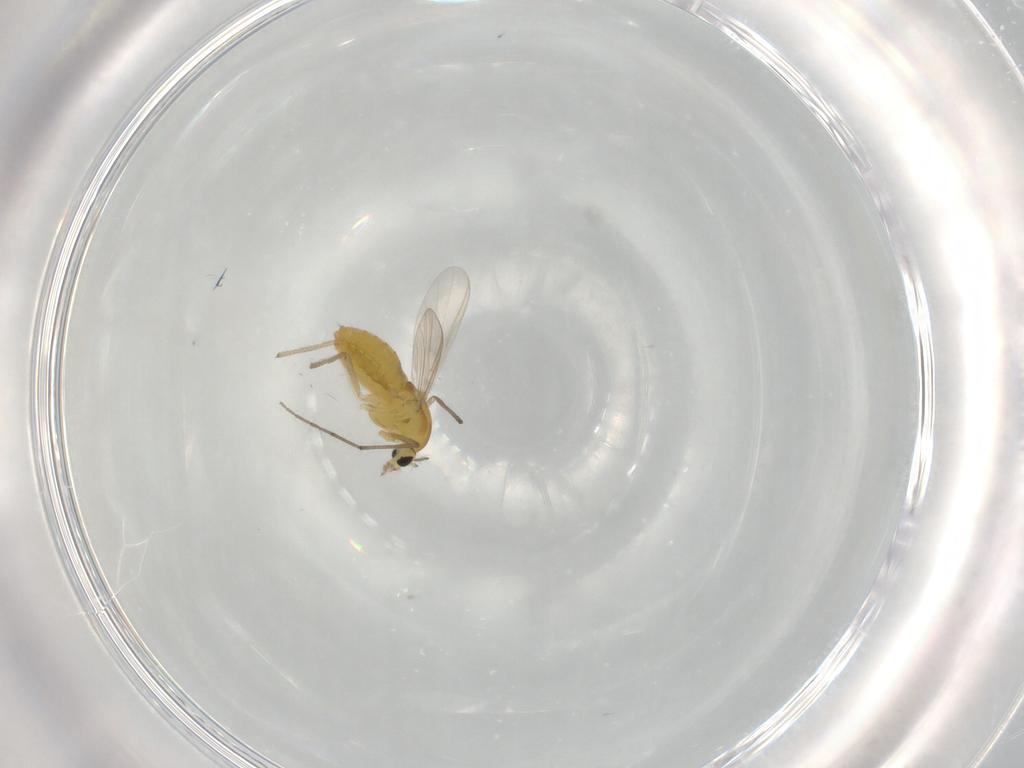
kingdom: Animalia
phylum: Arthropoda
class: Insecta
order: Diptera
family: Chironomidae
